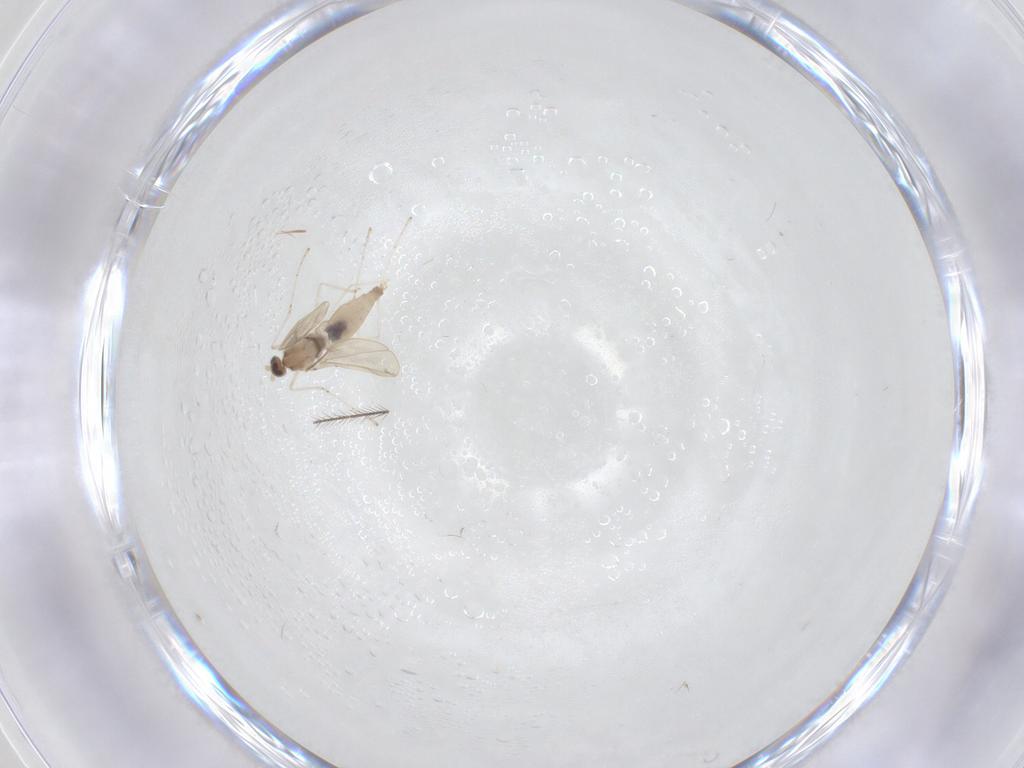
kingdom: Animalia
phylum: Arthropoda
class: Insecta
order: Diptera
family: Cecidomyiidae
